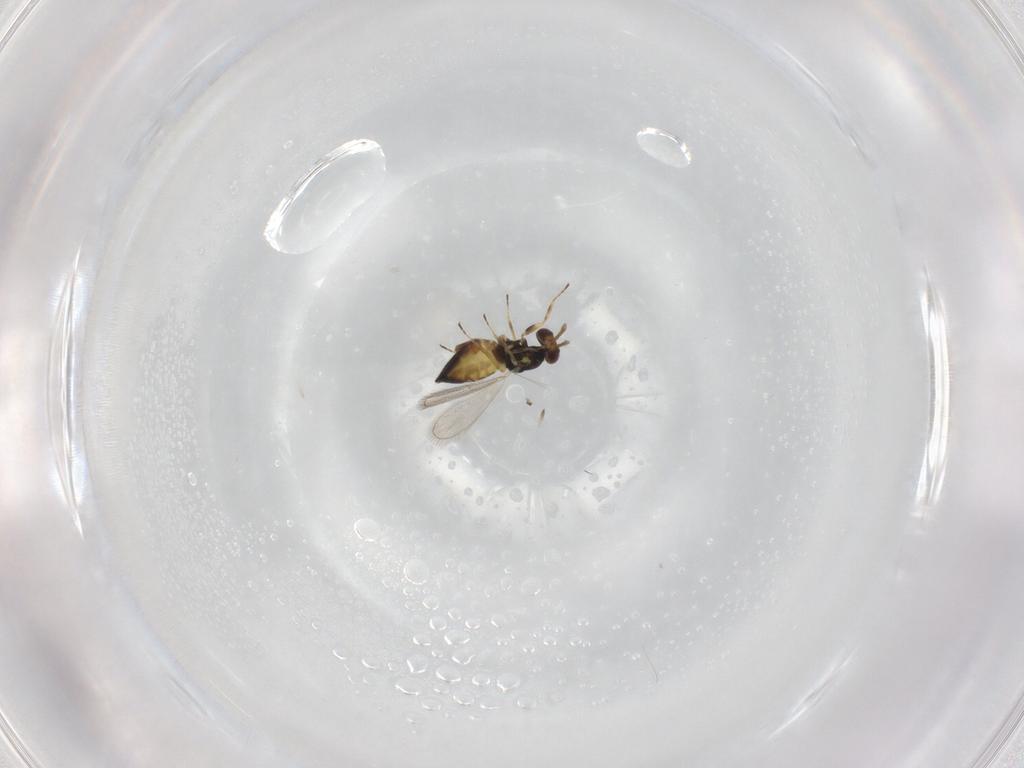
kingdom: Animalia
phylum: Arthropoda
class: Insecta
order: Hymenoptera
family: Eulophidae
